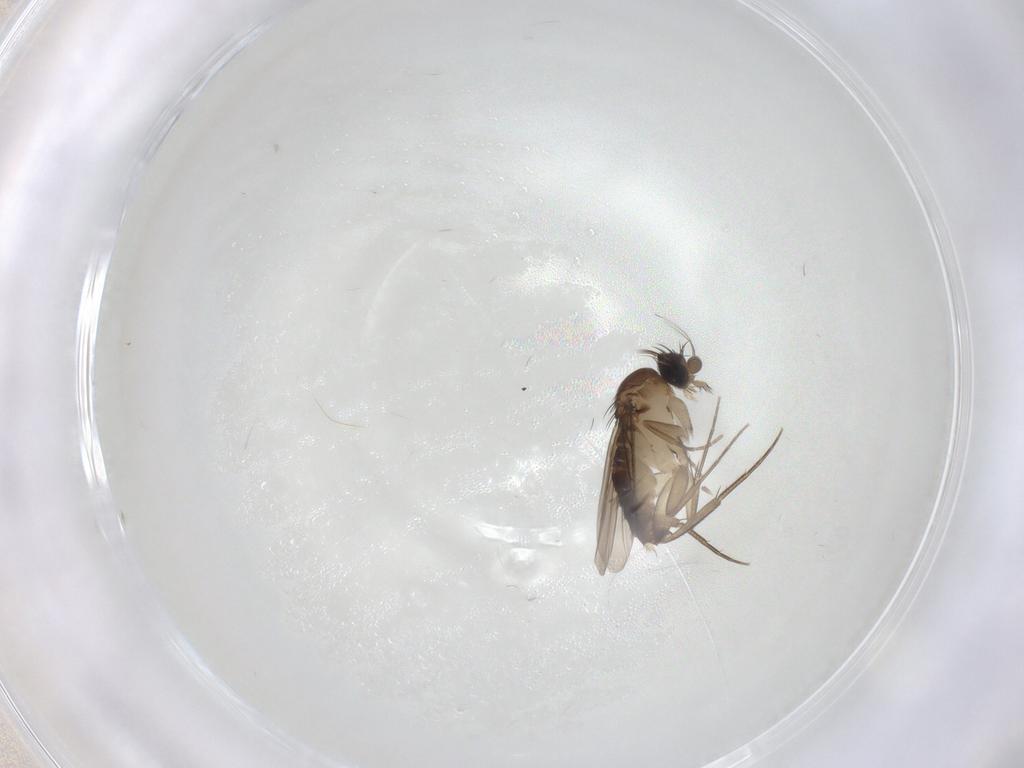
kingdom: Animalia
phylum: Arthropoda
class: Insecta
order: Diptera
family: Phoridae
